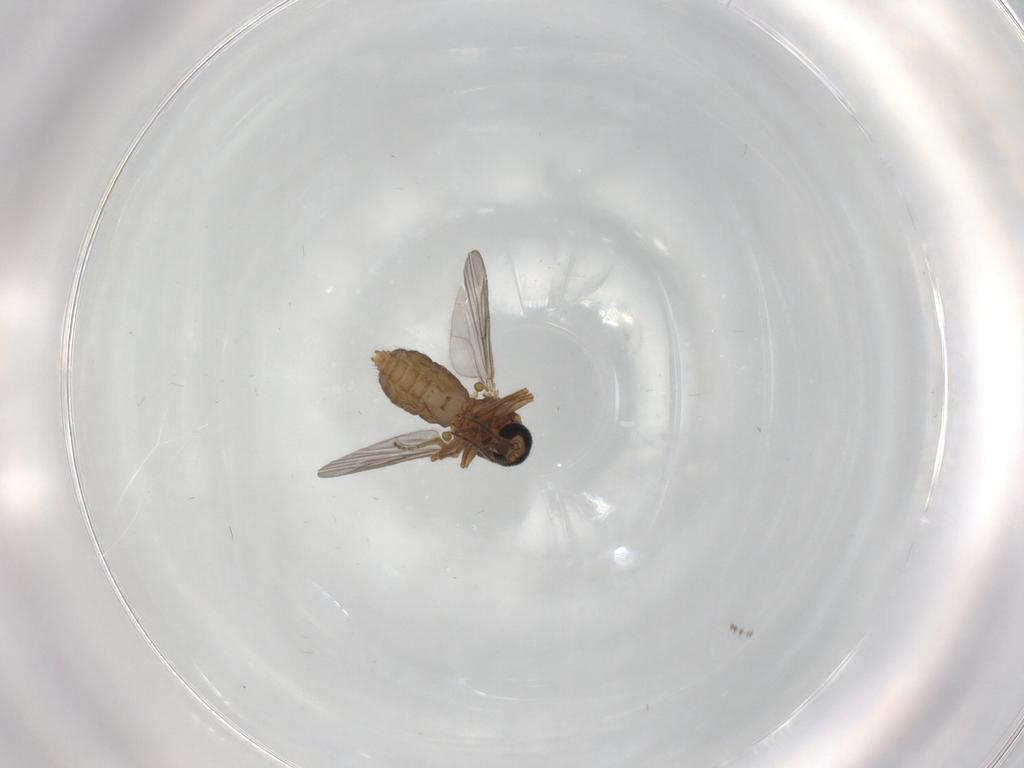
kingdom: Animalia
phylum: Arthropoda
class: Insecta
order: Diptera
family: Ceratopogonidae
